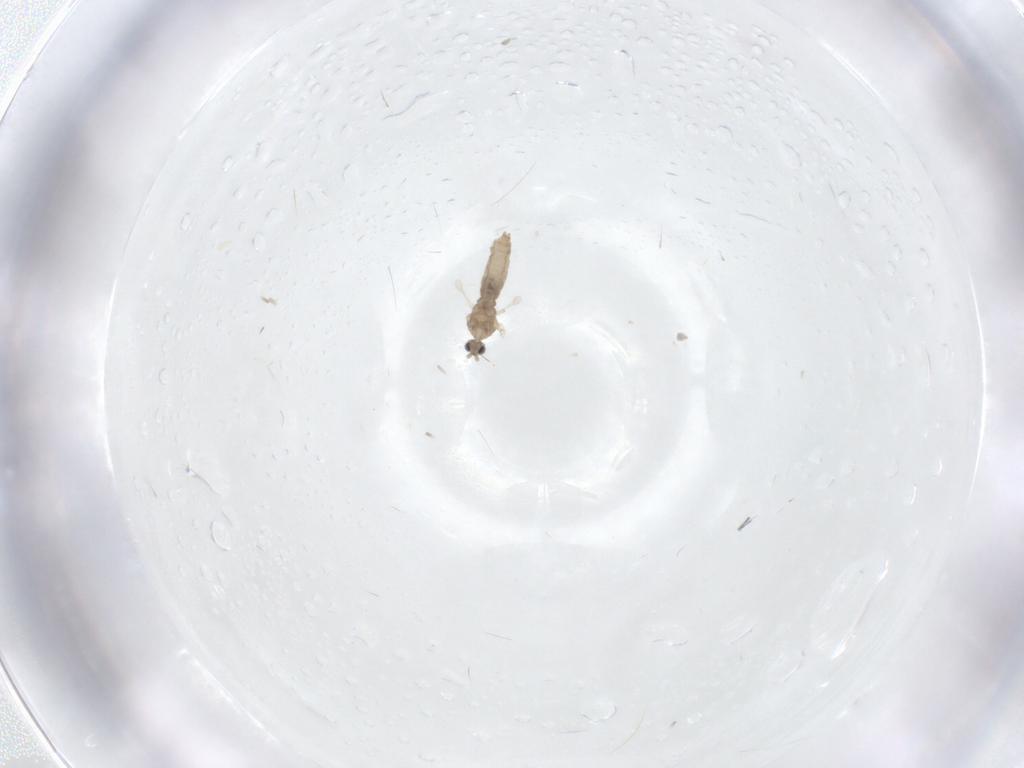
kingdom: Animalia
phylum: Arthropoda
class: Insecta
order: Diptera
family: Cecidomyiidae
